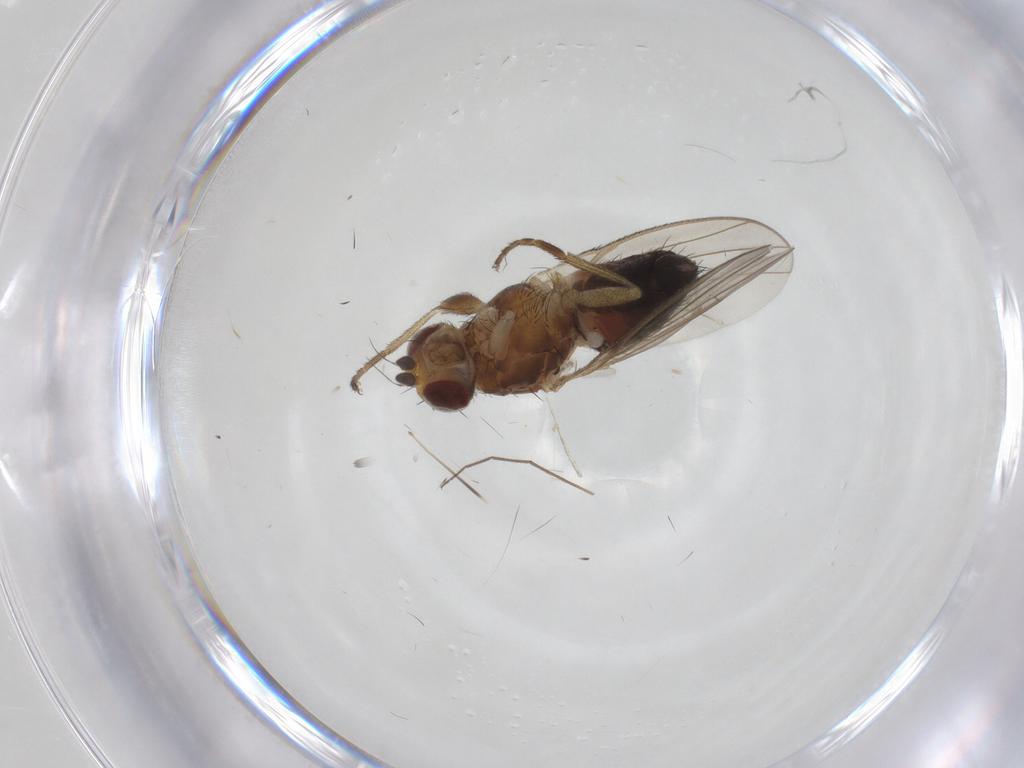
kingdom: Animalia
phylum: Arthropoda
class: Insecta
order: Diptera
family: Heleomyzidae
